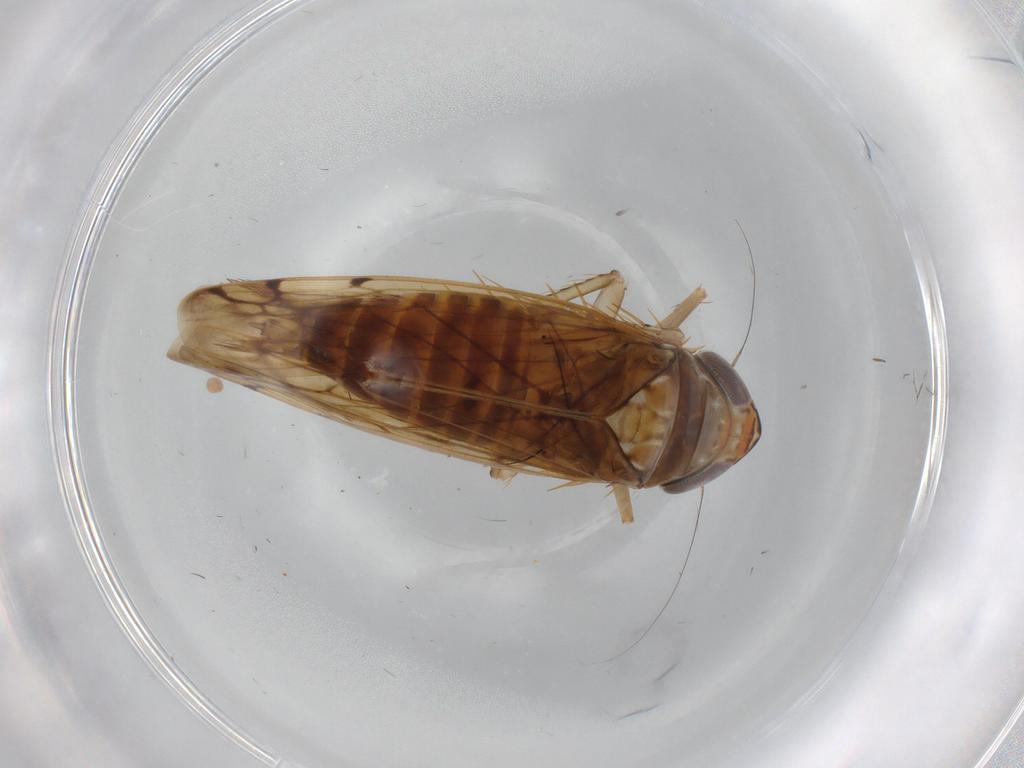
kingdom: Animalia
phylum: Arthropoda
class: Insecta
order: Hemiptera
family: Cicadellidae
